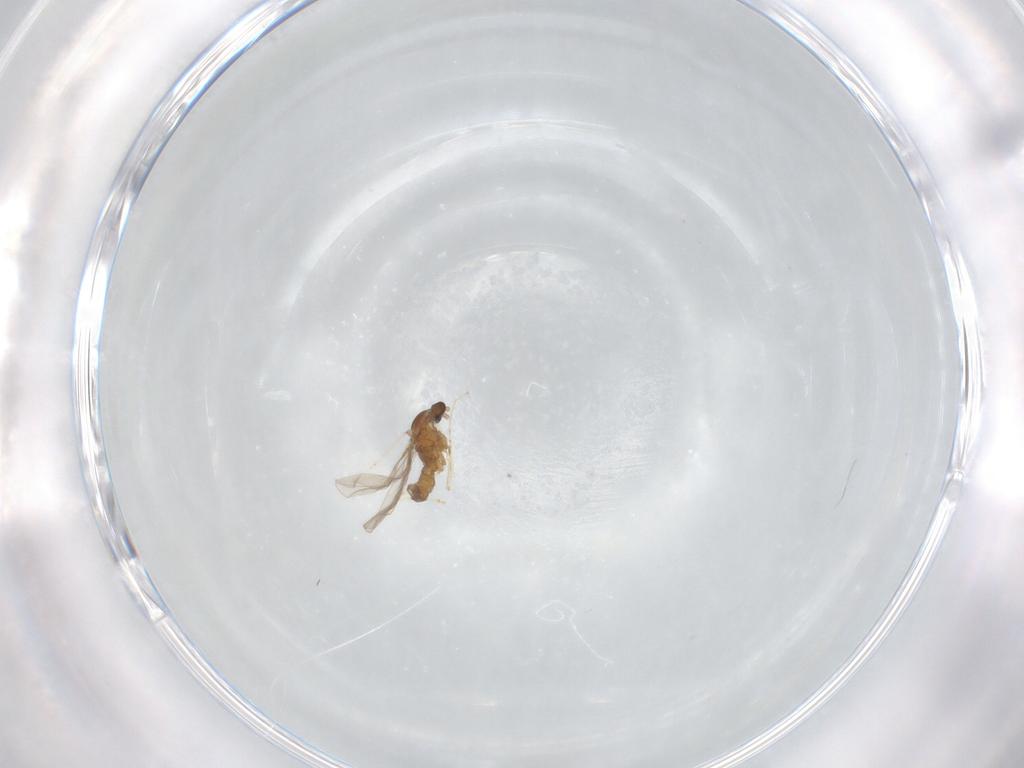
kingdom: Animalia
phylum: Arthropoda
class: Insecta
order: Diptera
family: Cecidomyiidae
